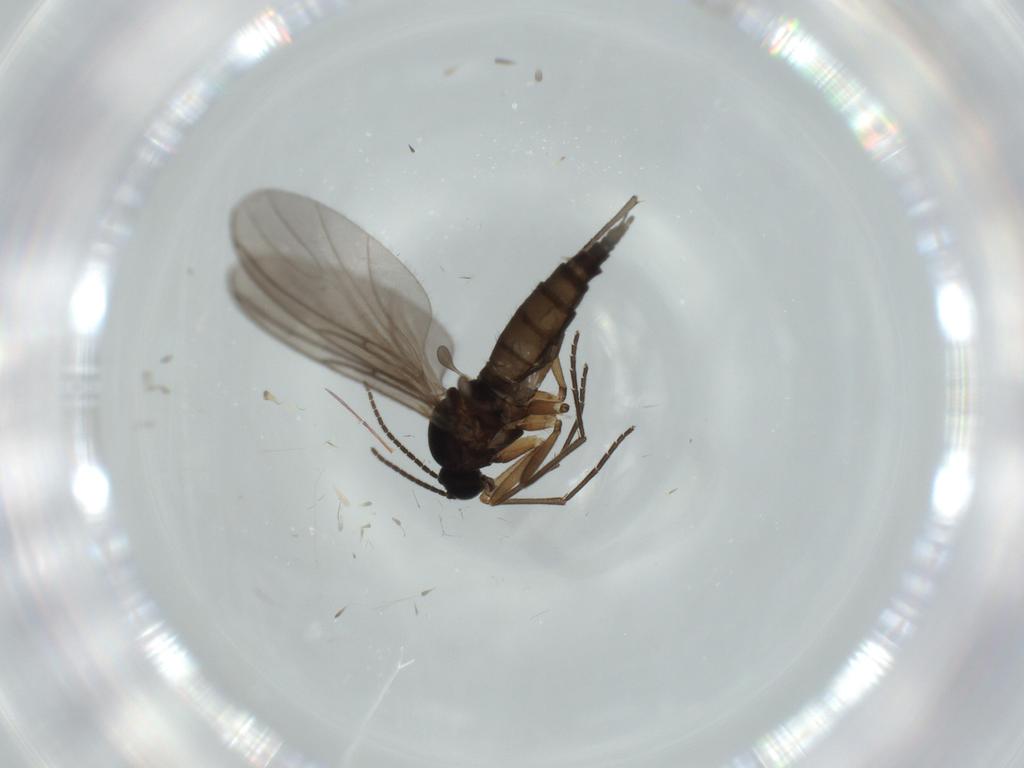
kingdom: Animalia
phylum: Arthropoda
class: Insecta
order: Diptera
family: Sciaridae
